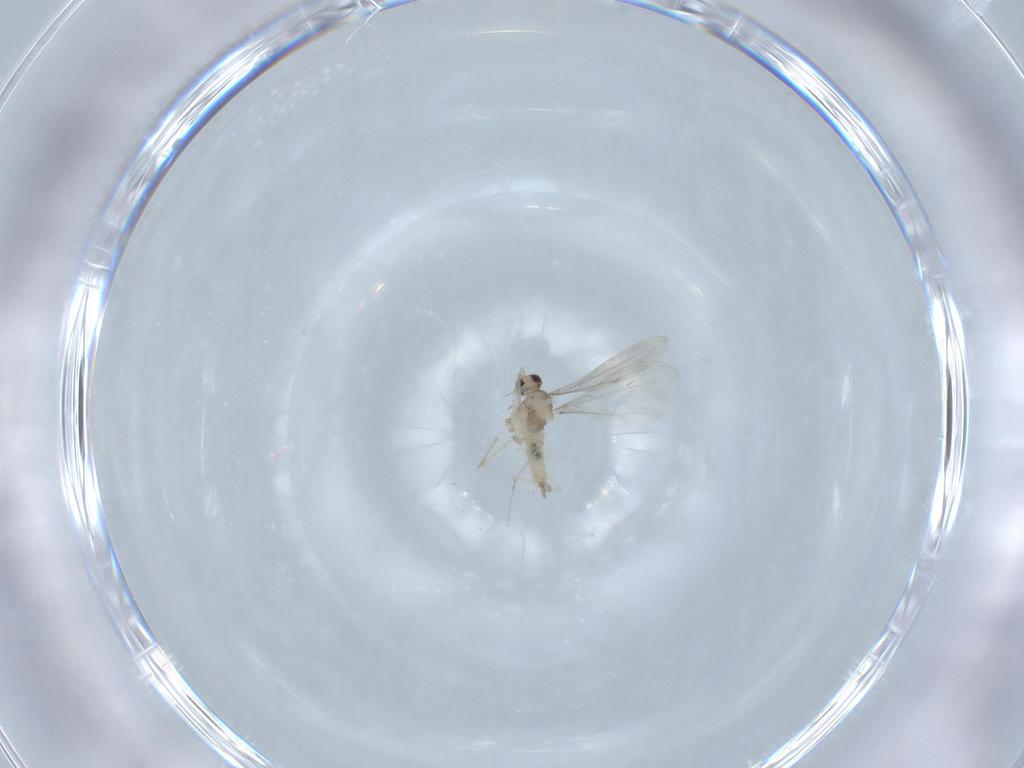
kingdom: Animalia
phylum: Arthropoda
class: Insecta
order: Diptera
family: Cecidomyiidae
